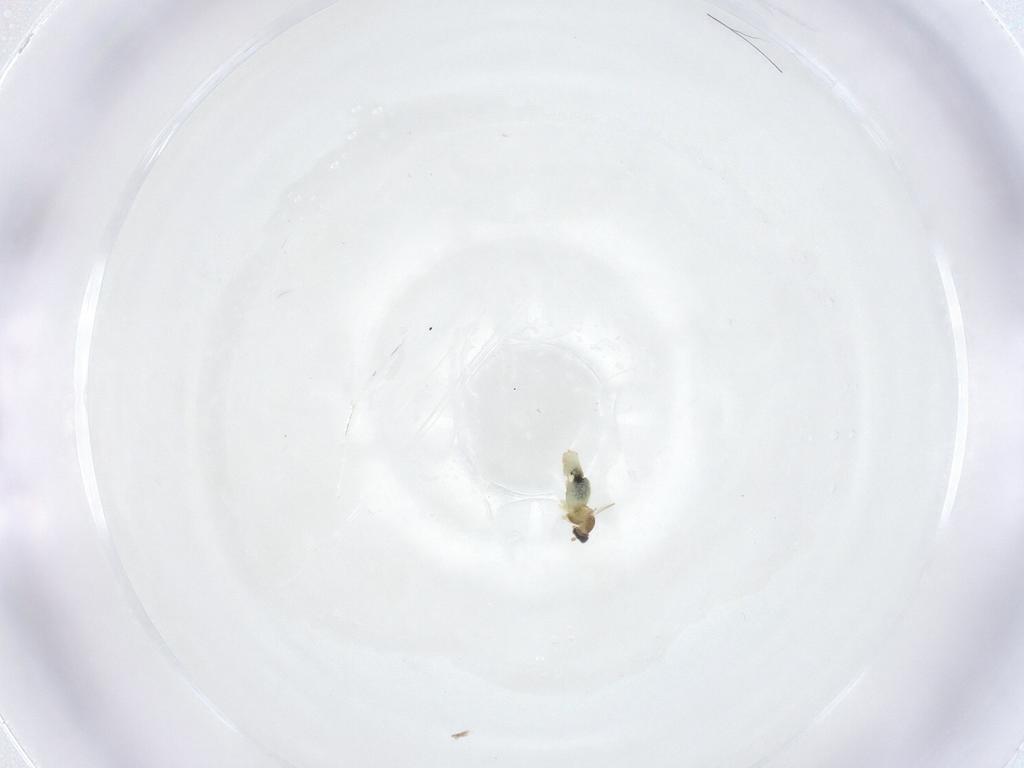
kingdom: Animalia
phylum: Arthropoda
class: Insecta
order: Diptera
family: Cecidomyiidae
